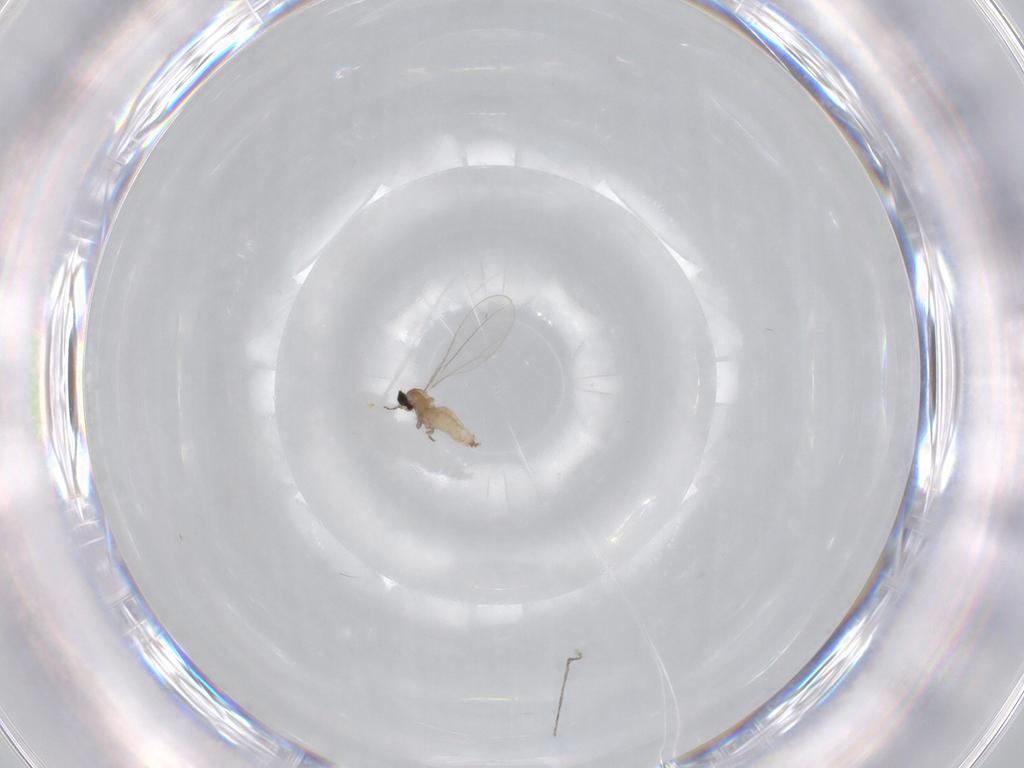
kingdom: Animalia
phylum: Arthropoda
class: Insecta
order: Diptera
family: Cecidomyiidae
